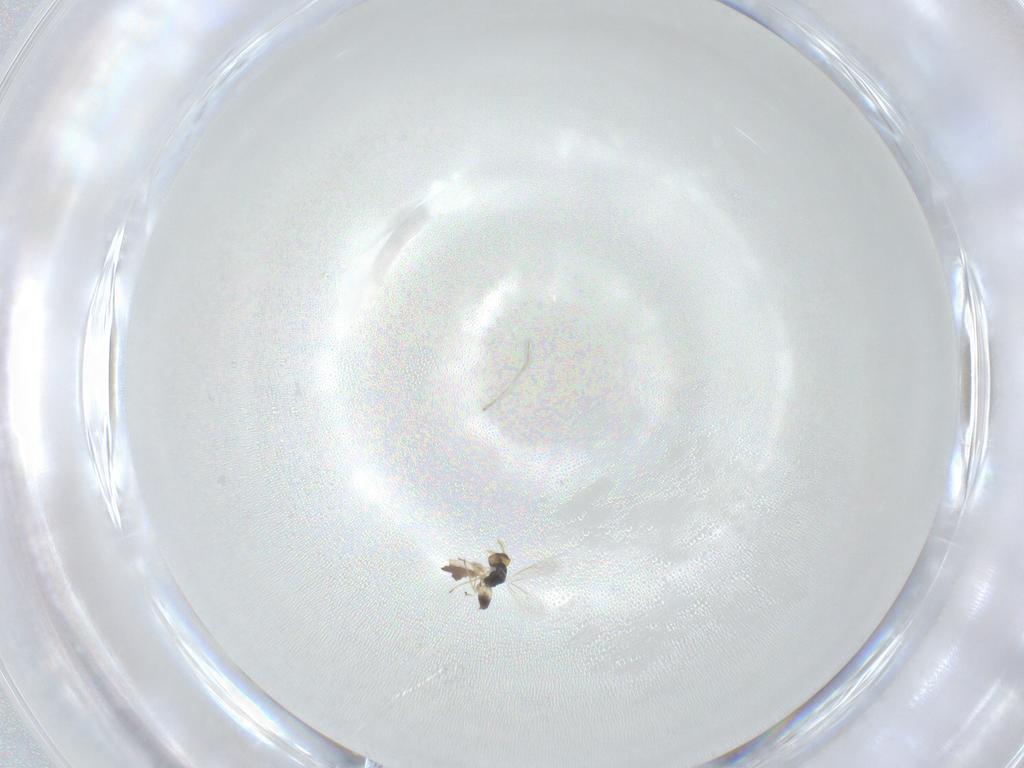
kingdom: Animalia
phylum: Arthropoda
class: Insecta
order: Hymenoptera
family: Eulophidae
